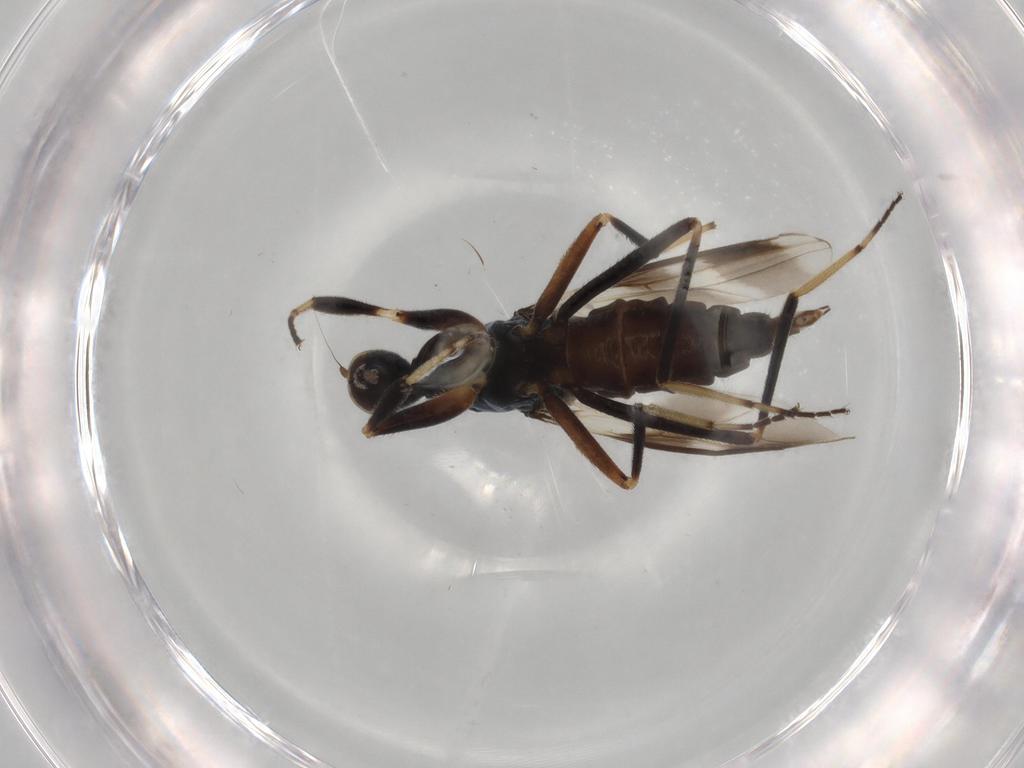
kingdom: Animalia
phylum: Arthropoda
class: Insecta
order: Diptera
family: Hybotidae
